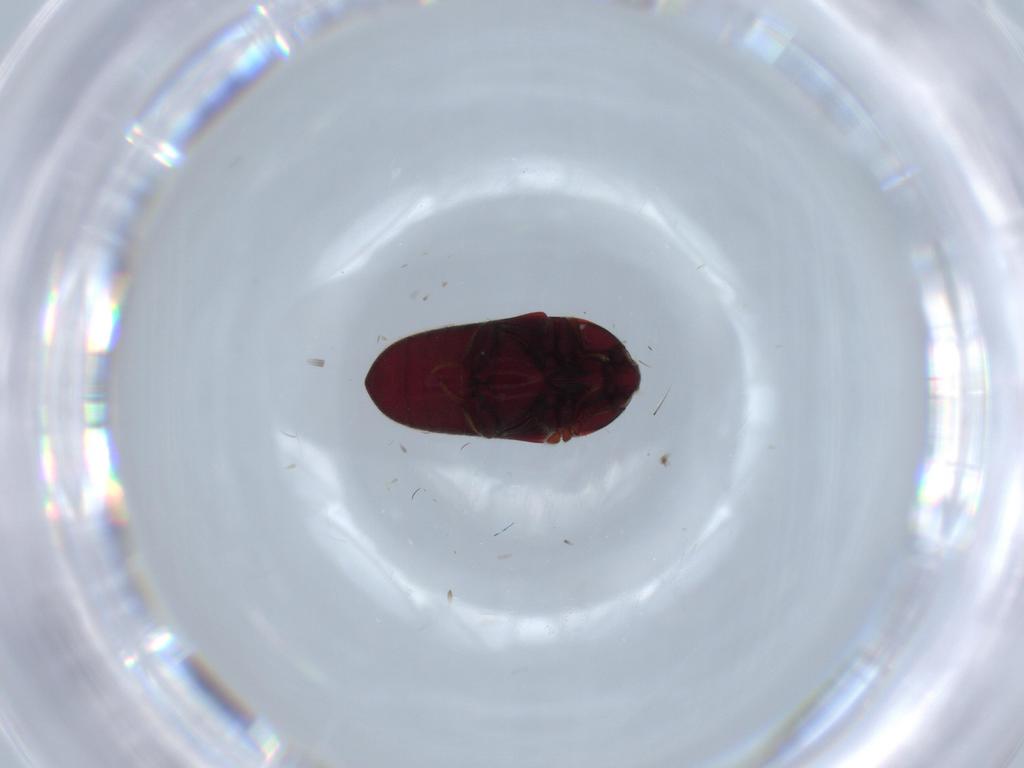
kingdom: Animalia
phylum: Arthropoda
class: Insecta
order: Coleoptera
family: Throscidae
